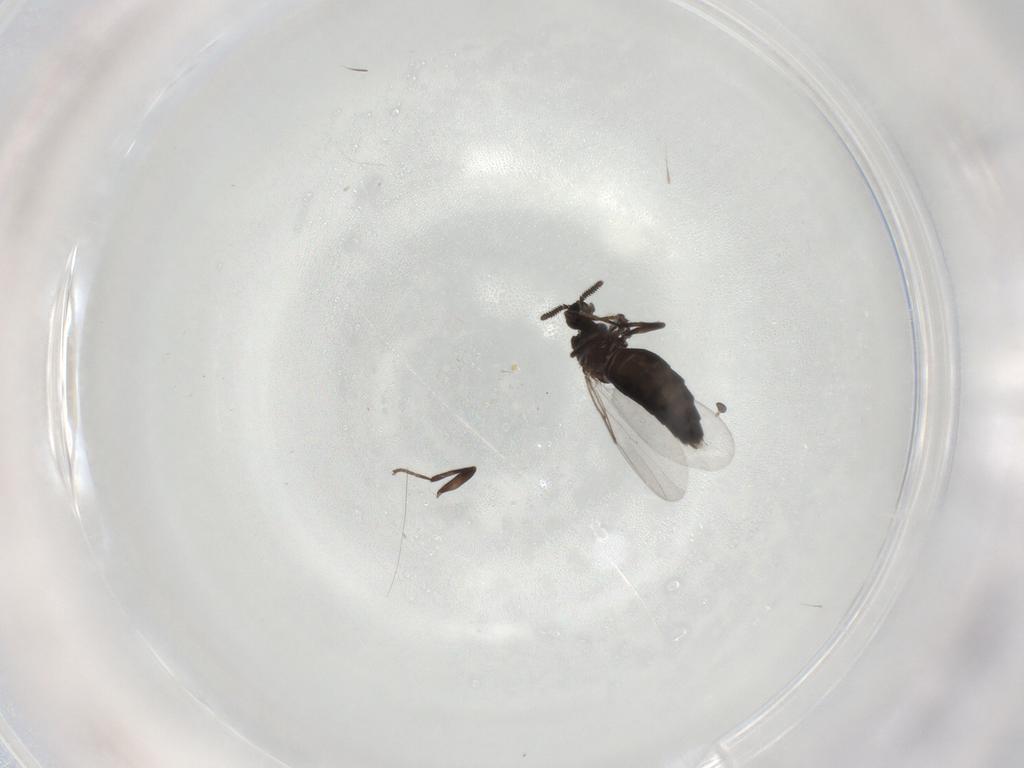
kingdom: Animalia
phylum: Arthropoda
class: Insecta
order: Diptera
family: Scatopsidae
